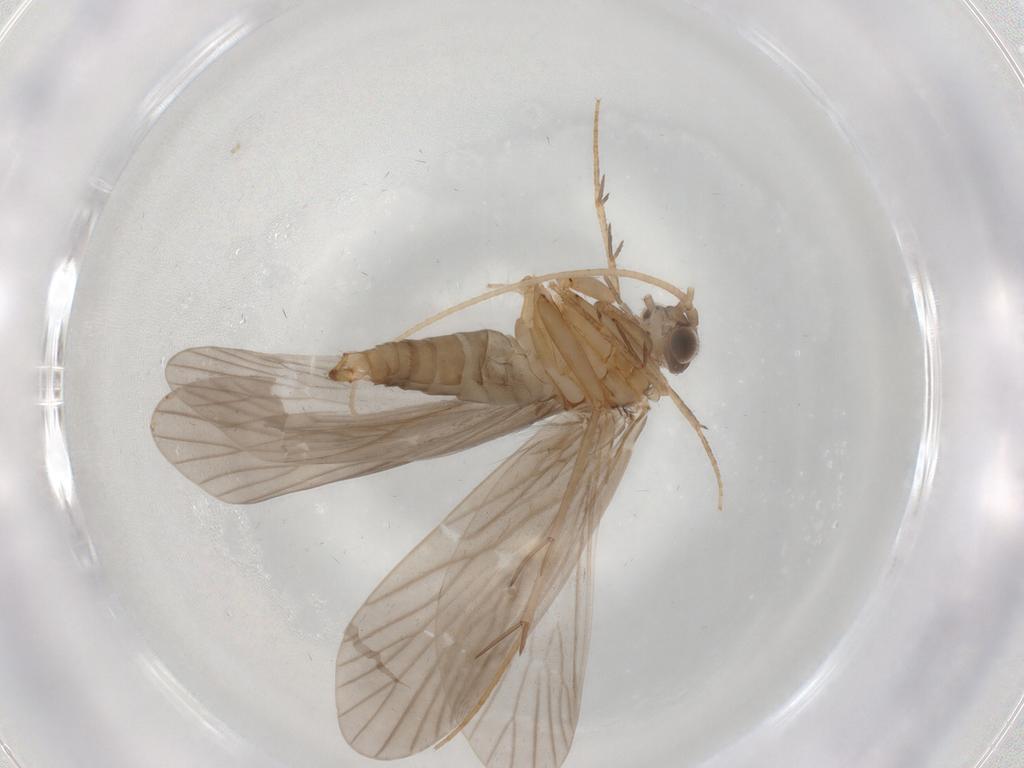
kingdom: Animalia
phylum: Arthropoda
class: Insecta
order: Trichoptera
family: Philopotamidae
